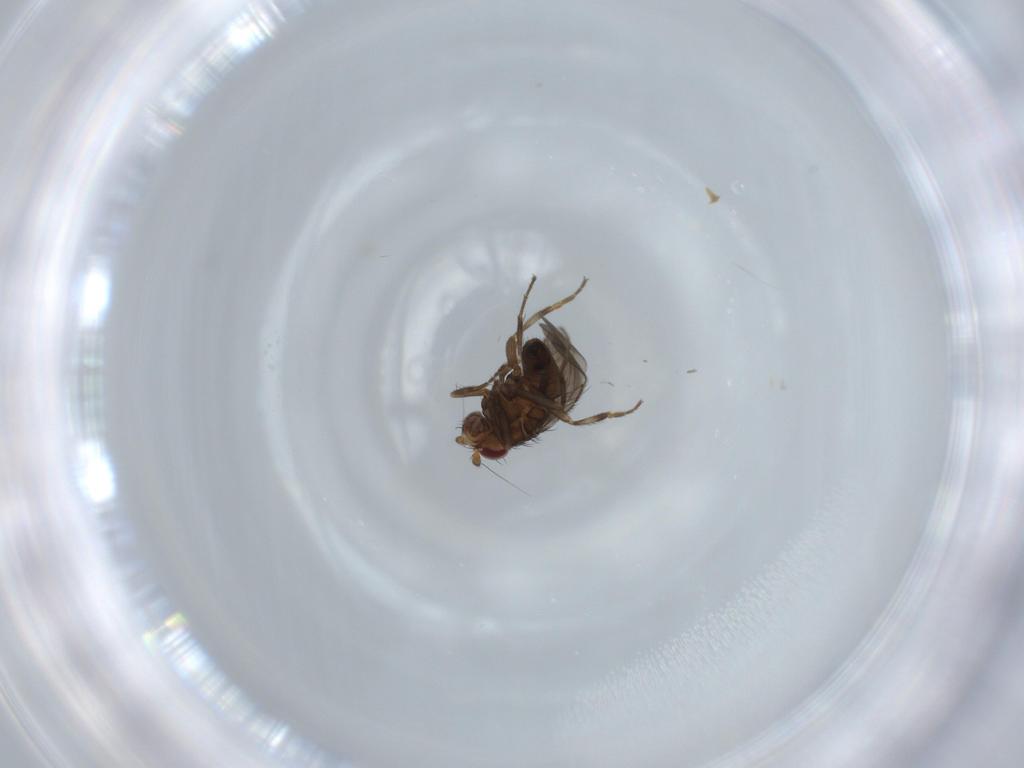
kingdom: Animalia
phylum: Arthropoda
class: Insecta
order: Diptera
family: Sphaeroceridae
